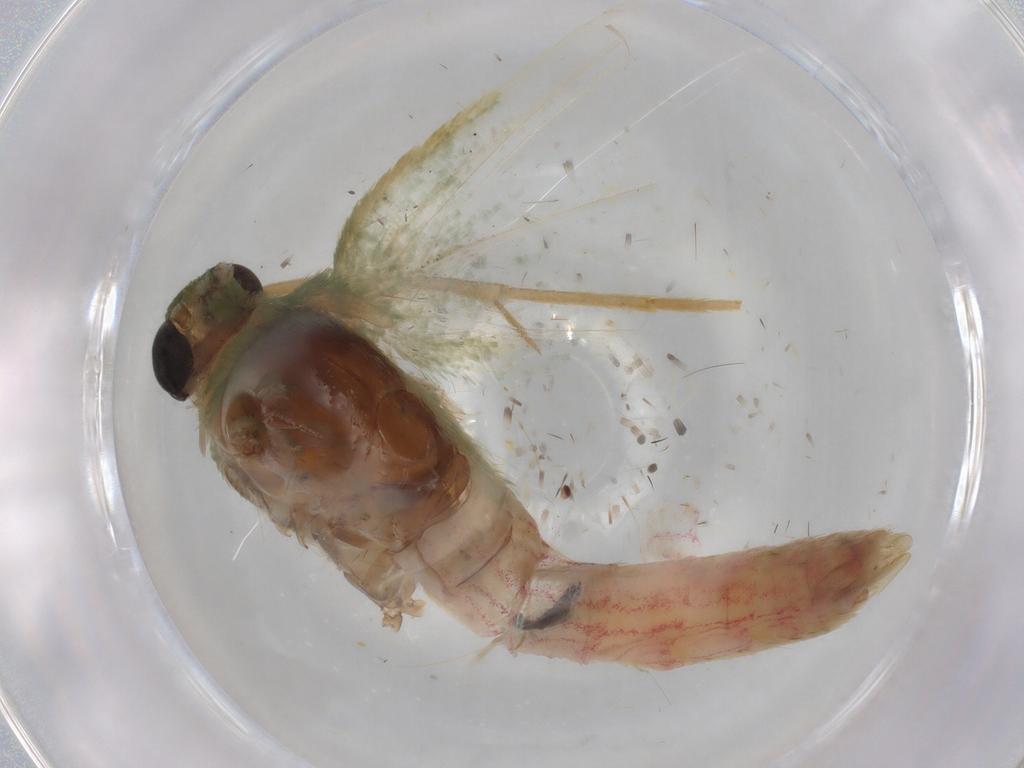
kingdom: Animalia
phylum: Arthropoda
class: Insecta
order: Lepidoptera
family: Geometridae
